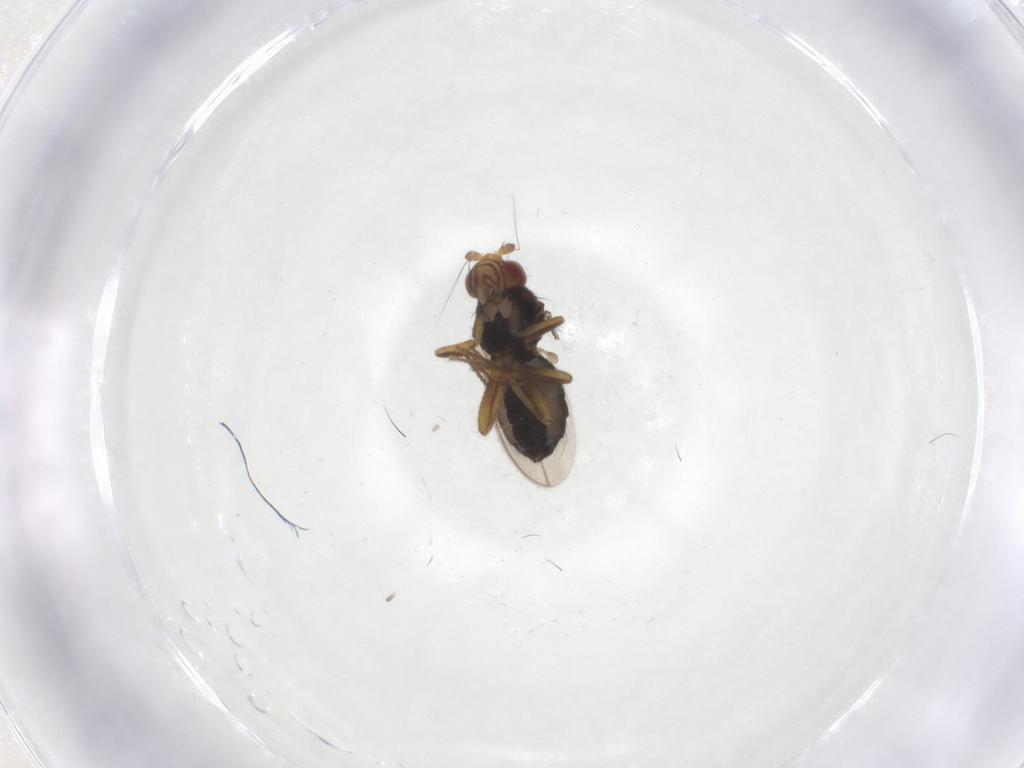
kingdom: Animalia
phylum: Arthropoda
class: Insecta
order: Diptera
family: Sphaeroceridae
